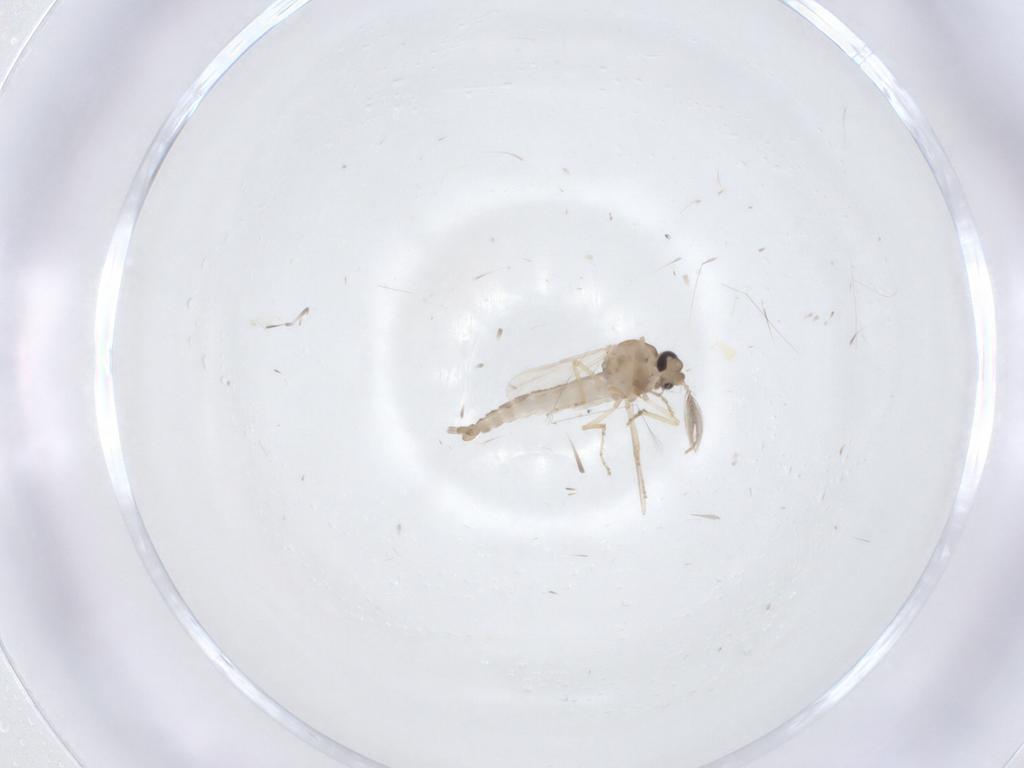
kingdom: Animalia
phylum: Arthropoda
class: Insecta
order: Diptera
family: Ceratopogonidae
